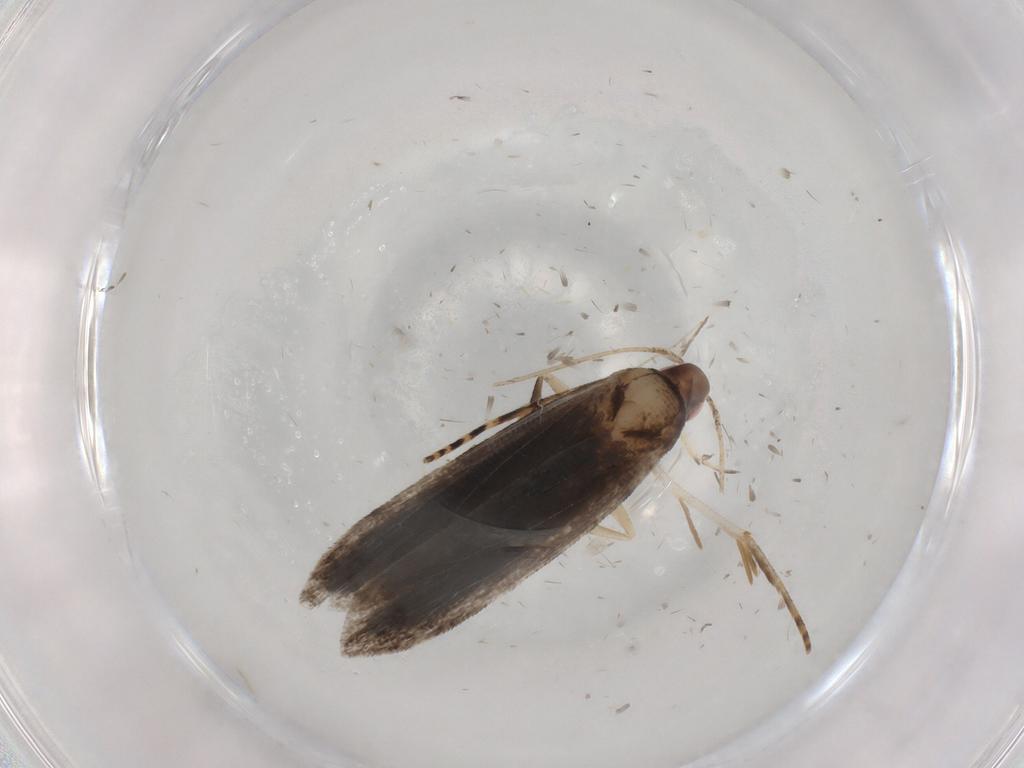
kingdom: Animalia
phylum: Arthropoda
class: Insecta
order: Lepidoptera
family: Gelechiidae
